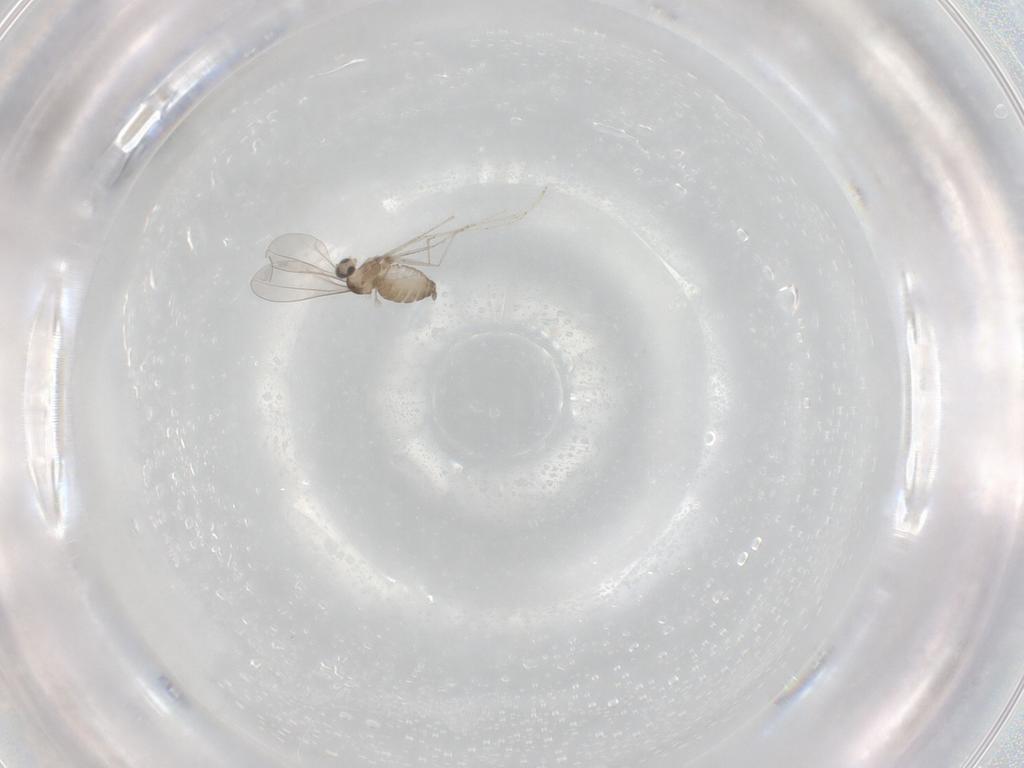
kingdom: Animalia
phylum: Arthropoda
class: Insecta
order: Diptera
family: Cecidomyiidae
